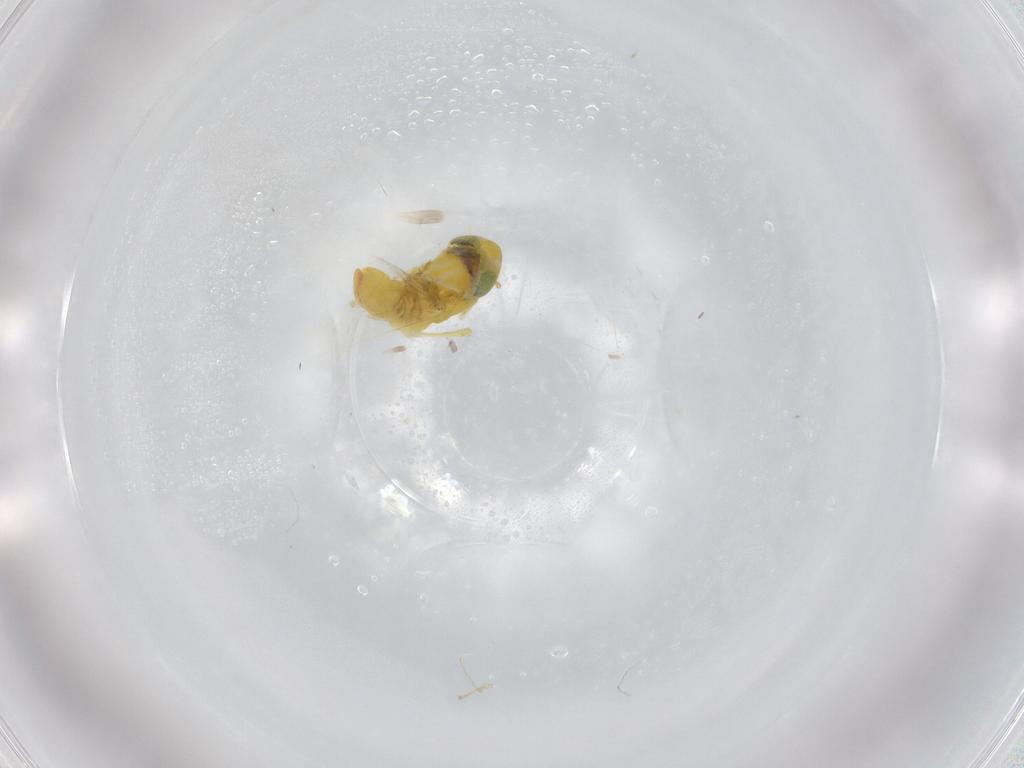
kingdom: Animalia
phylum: Arthropoda
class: Insecta
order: Hemiptera
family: Cicadellidae
